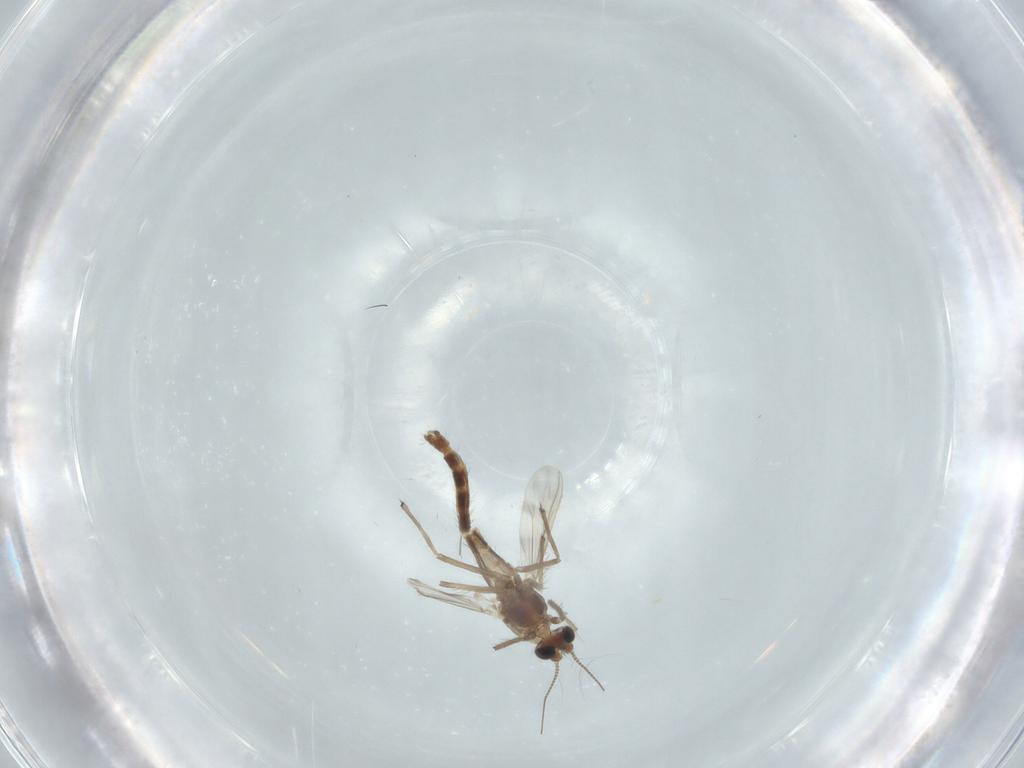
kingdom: Animalia
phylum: Arthropoda
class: Insecta
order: Diptera
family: Chironomidae
